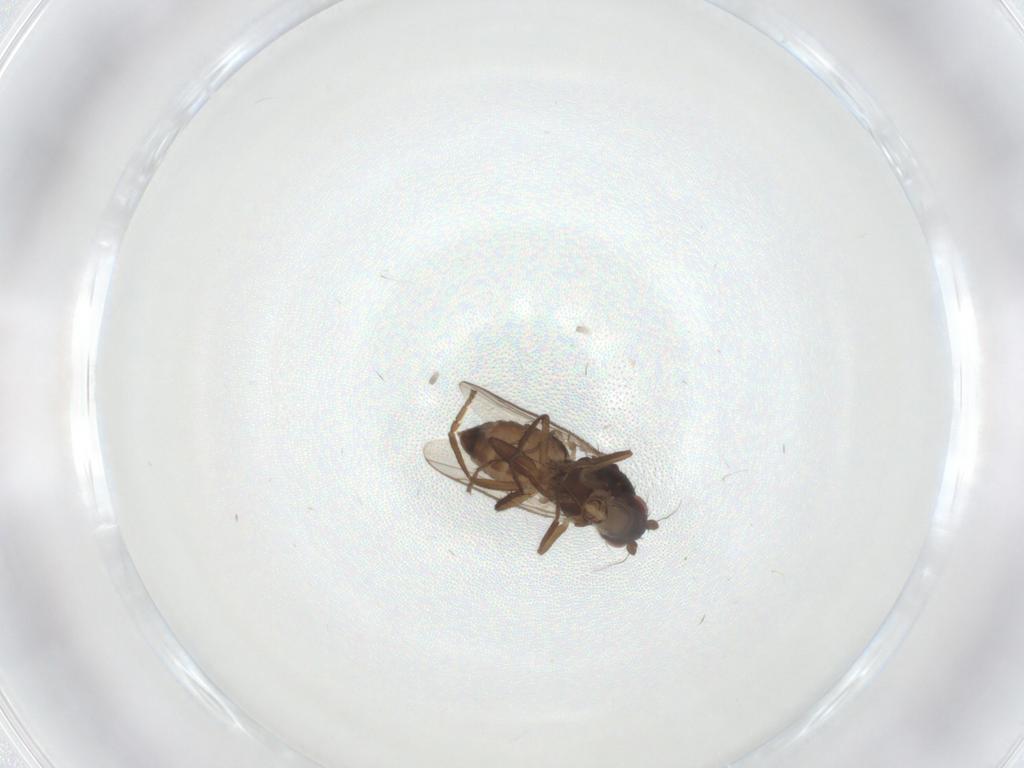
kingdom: Animalia
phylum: Arthropoda
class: Insecta
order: Diptera
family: Psychodidae
